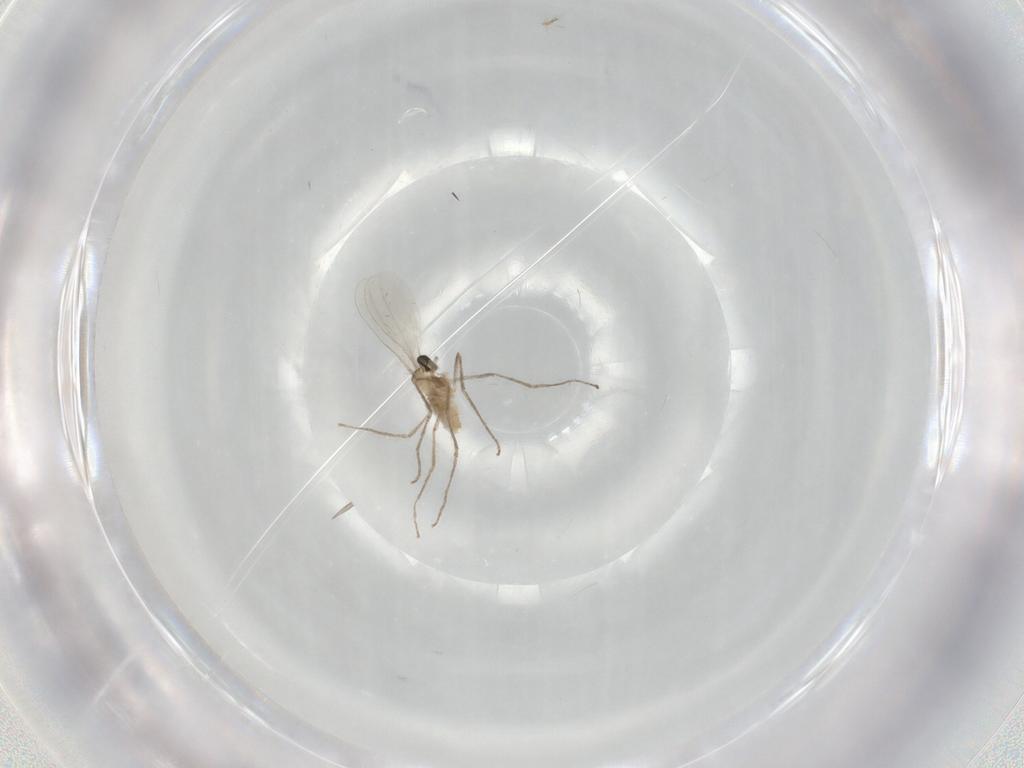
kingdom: Animalia
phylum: Arthropoda
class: Insecta
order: Diptera
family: Cecidomyiidae
